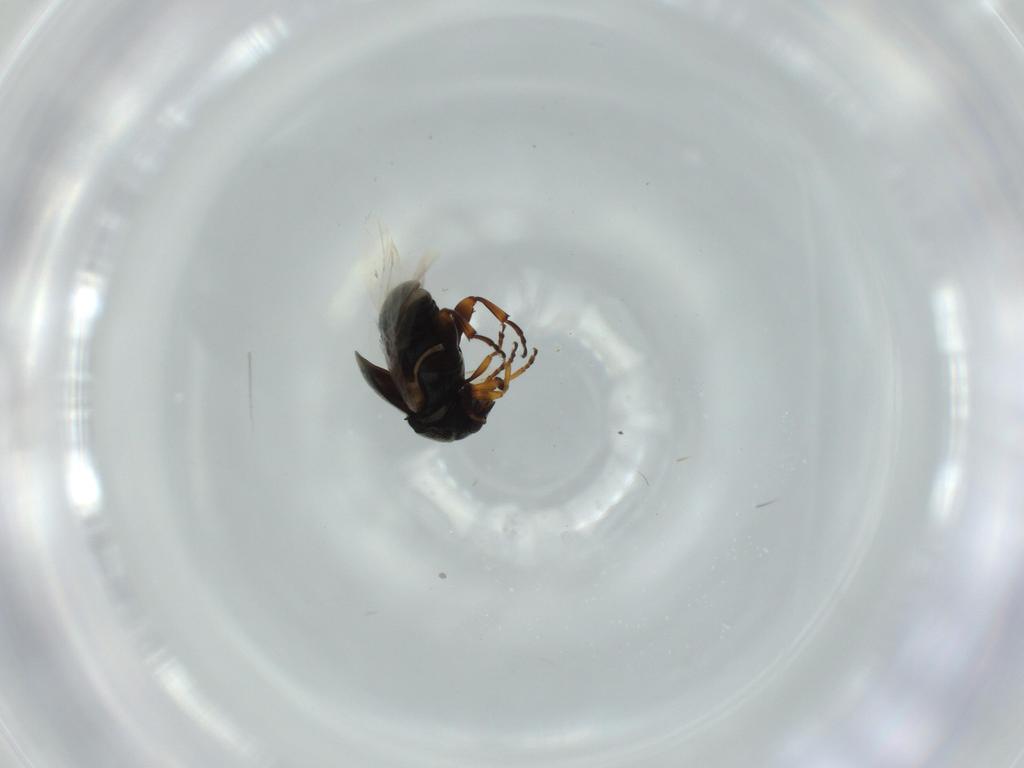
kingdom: Animalia
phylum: Arthropoda
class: Insecta
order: Coleoptera
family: Chrysomelidae
